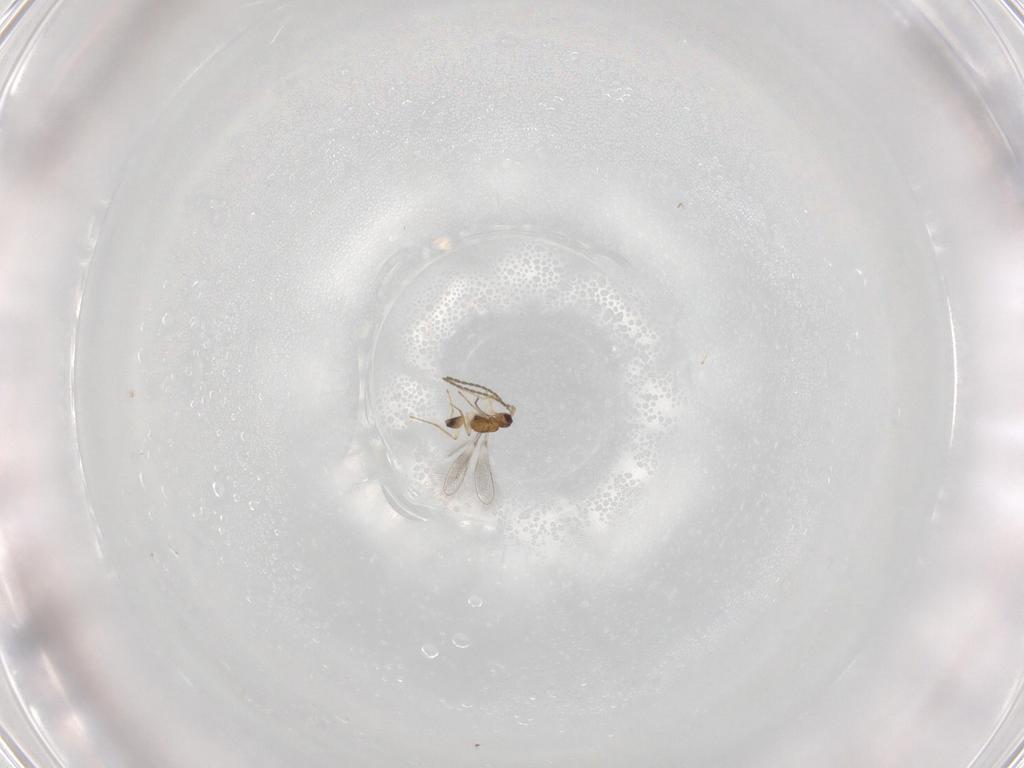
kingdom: Animalia
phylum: Arthropoda
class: Insecta
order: Hymenoptera
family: Mymaridae
